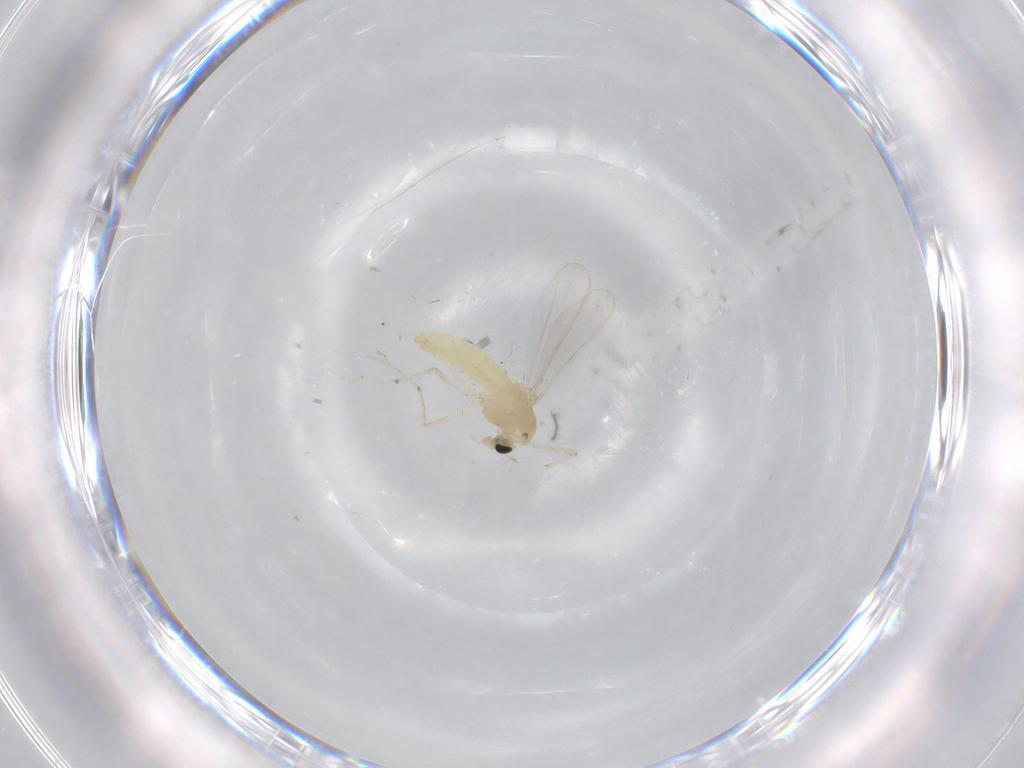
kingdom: Animalia
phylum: Arthropoda
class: Insecta
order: Diptera
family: Chironomidae
